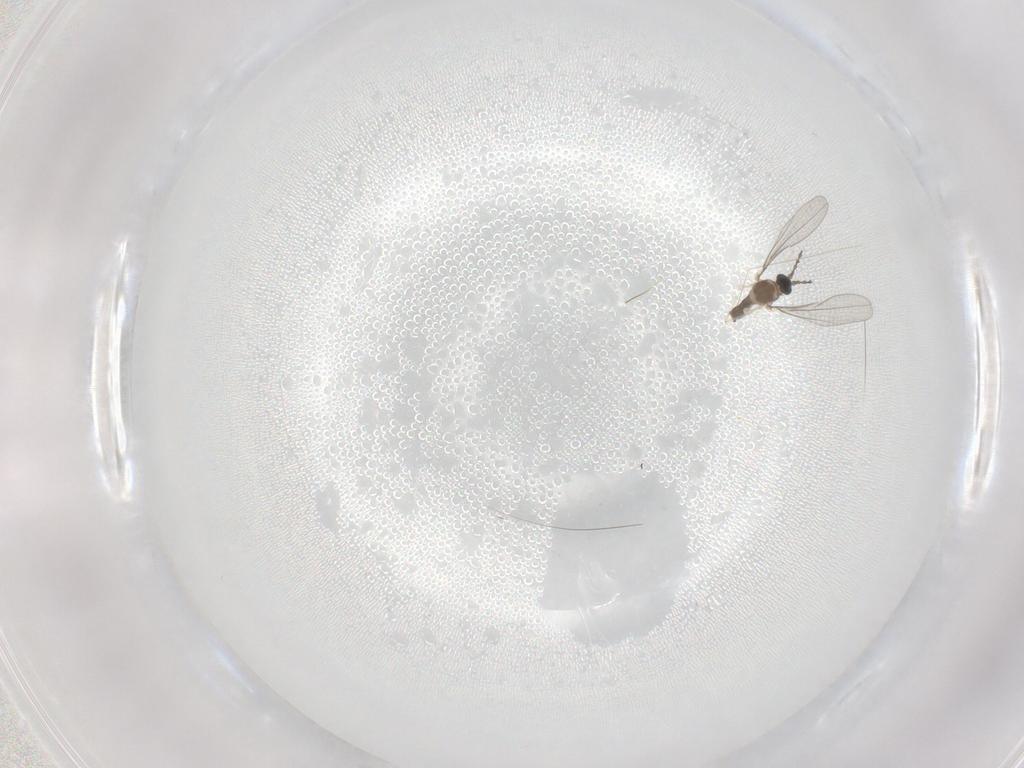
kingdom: Animalia
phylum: Arthropoda
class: Insecta
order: Diptera
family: Cecidomyiidae
